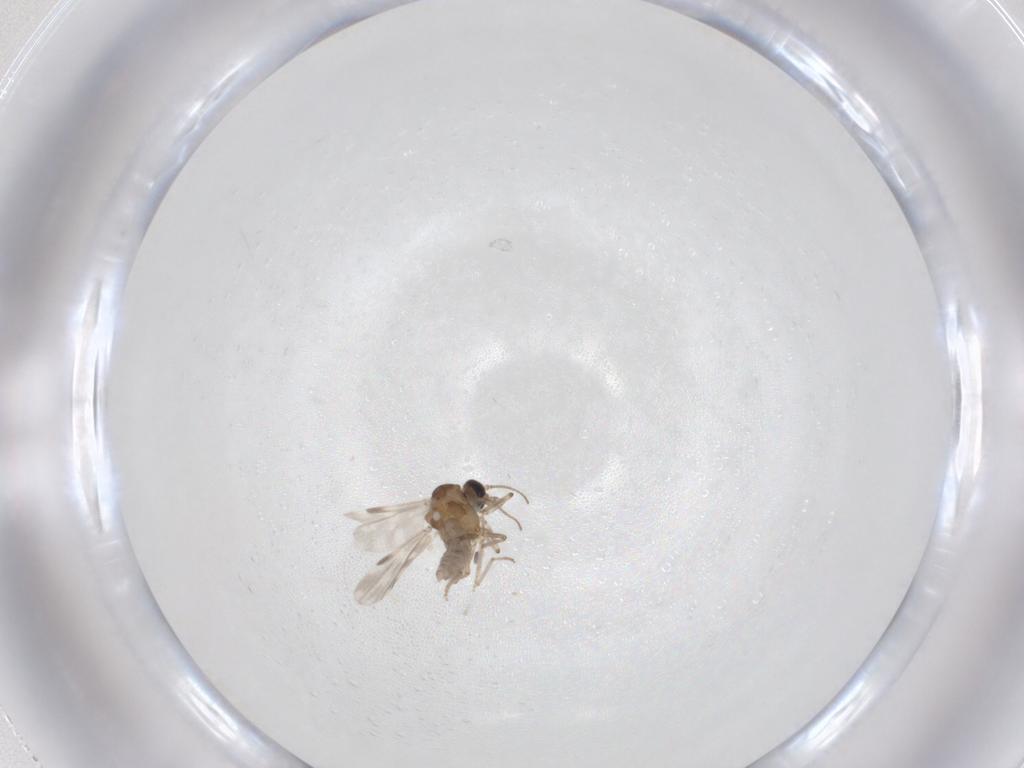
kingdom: Animalia
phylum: Arthropoda
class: Insecta
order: Diptera
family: Ceratopogonidae
